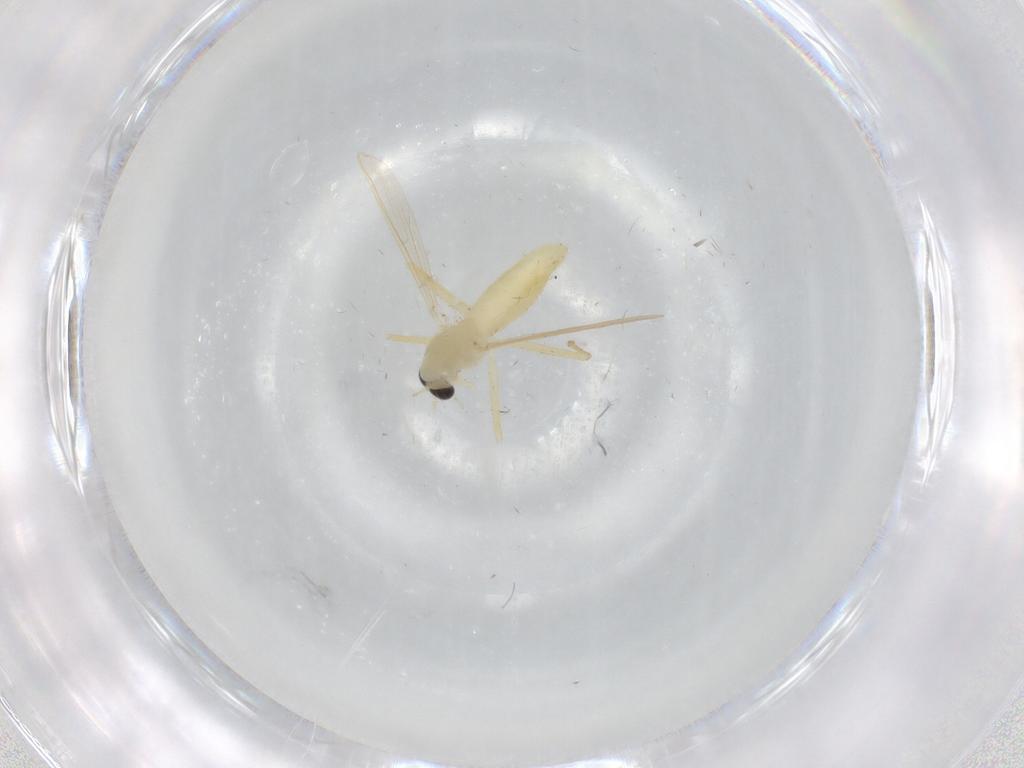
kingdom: Animalia
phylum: Arthropoda
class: Insecta
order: Diptera
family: Chironomidae
